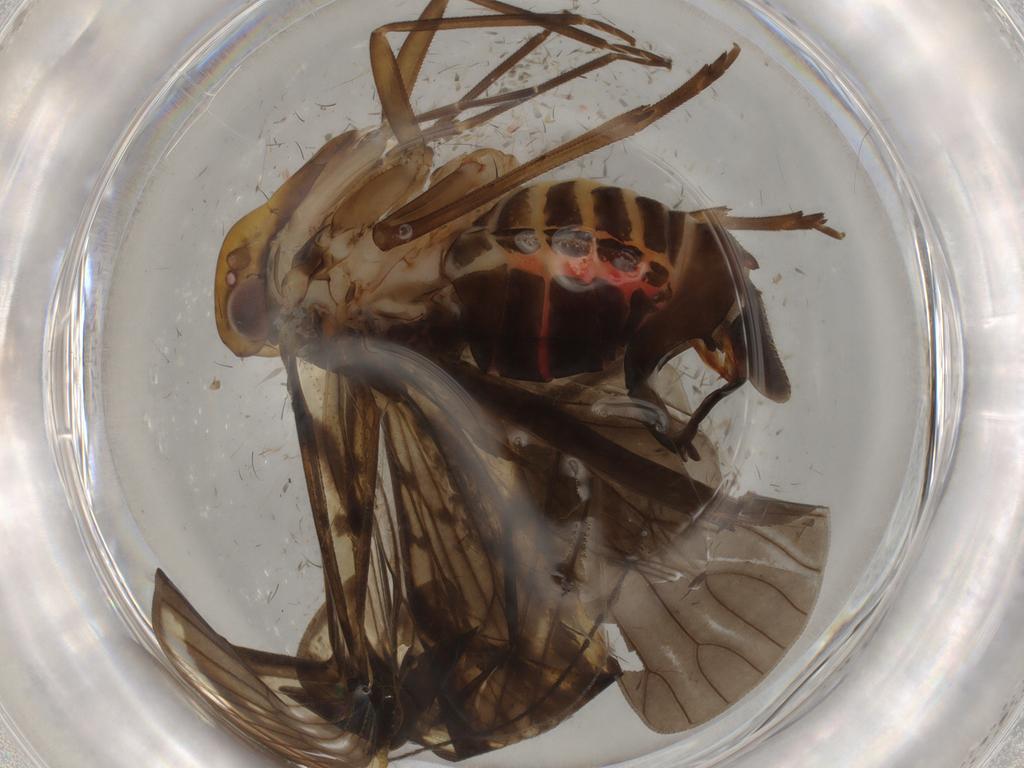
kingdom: Animalia
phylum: Arthropoda
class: Insecta
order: Hemiptera
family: Cixiidae
